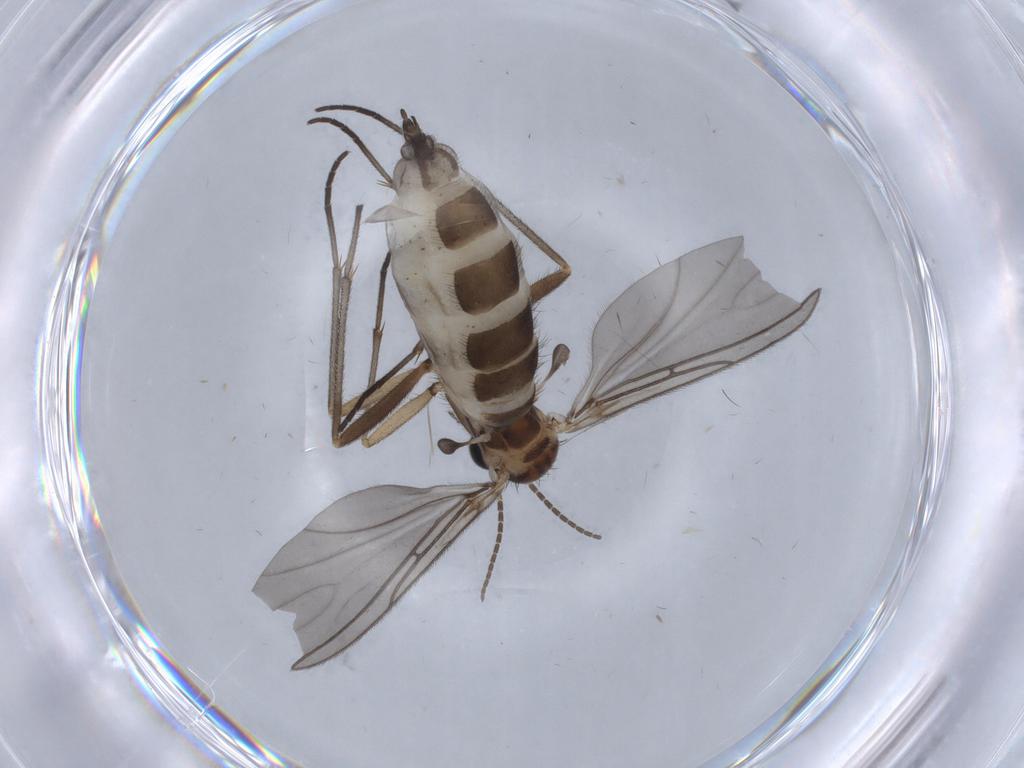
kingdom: Animalia
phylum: Arthropoda
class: Insecta
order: Diptera
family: Sciaridae
